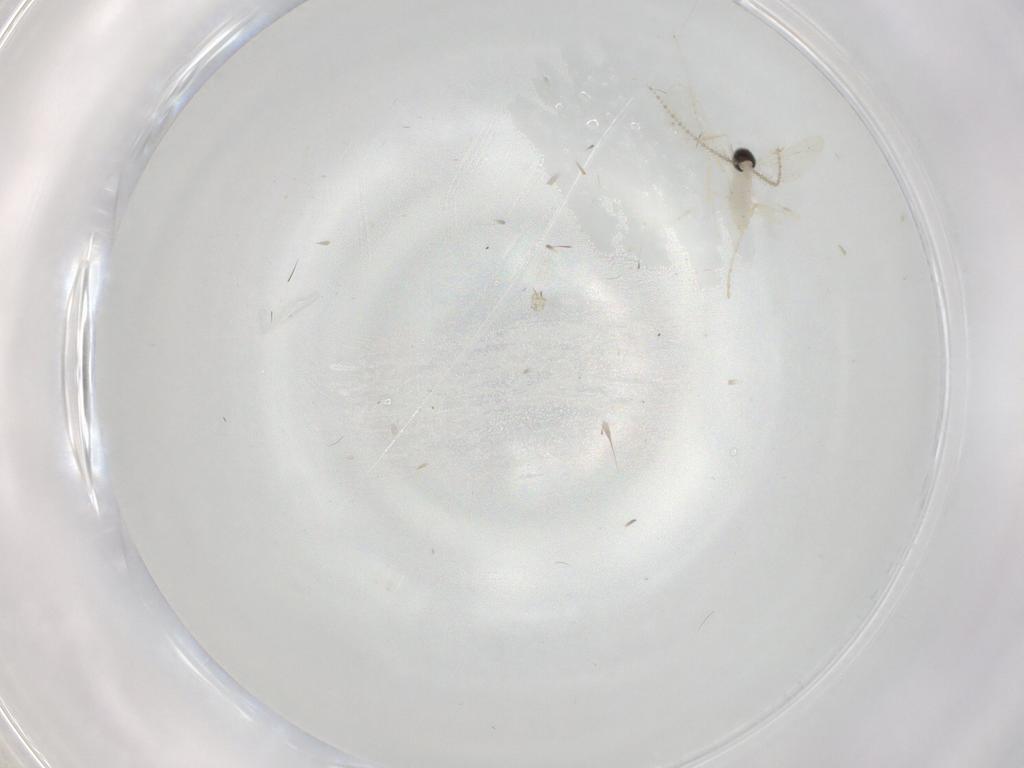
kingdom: Animalia
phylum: Arthropoda
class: Insecta
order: Diptera
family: Cecidomyiidae
